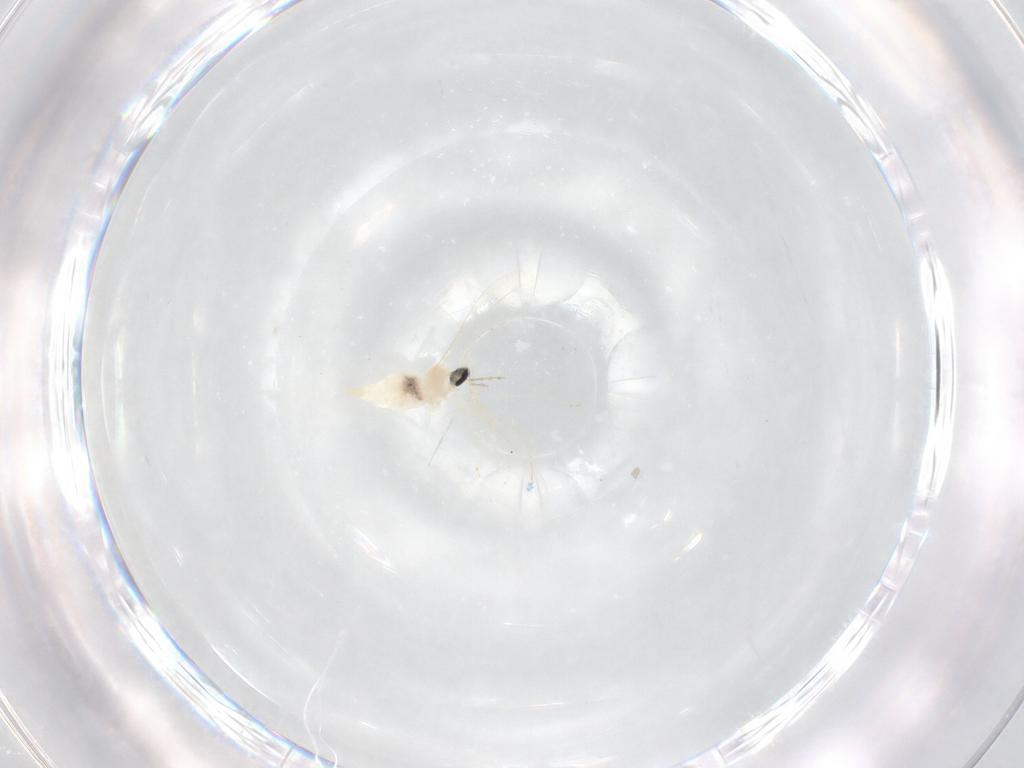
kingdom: Animalia
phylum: Arthropoda
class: Insecta
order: Diptera
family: Cecidomyiidae
